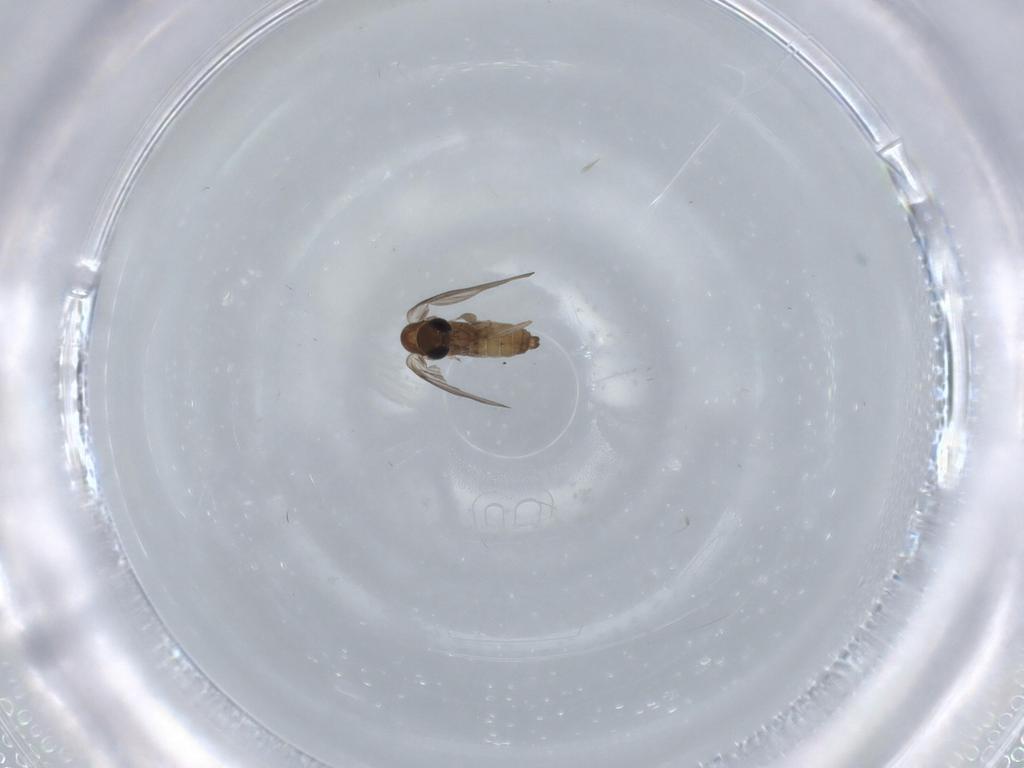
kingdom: Animalia
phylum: Arthropoda
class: Insecta
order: Diptera
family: Psychodidae
